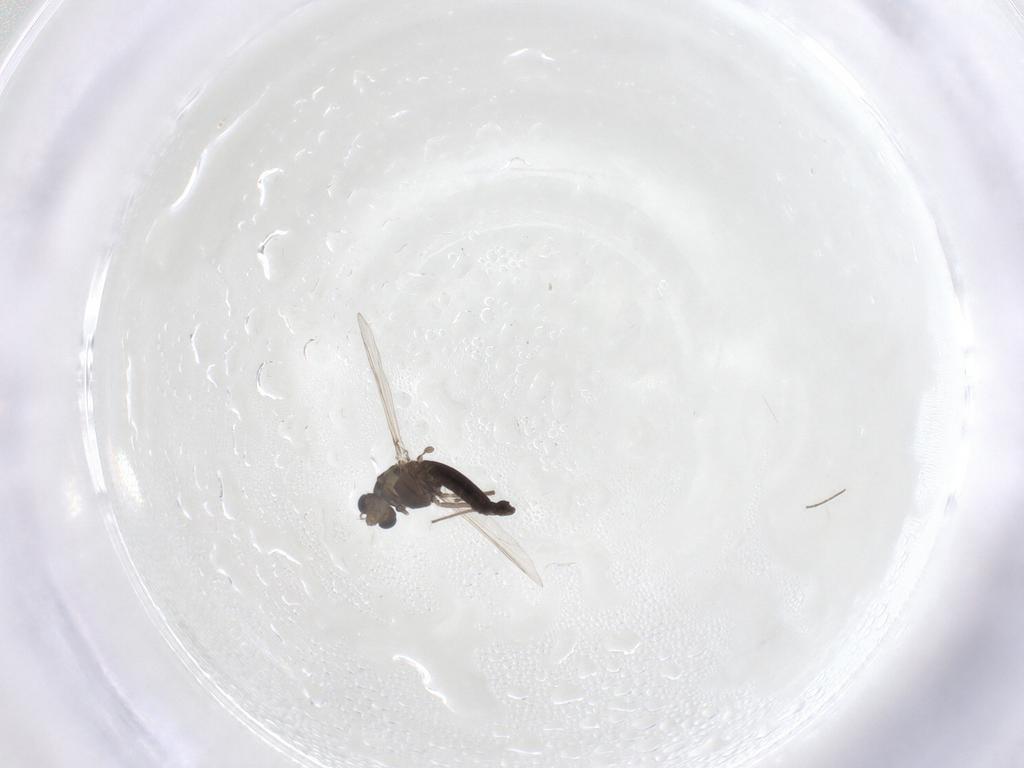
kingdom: Animalia
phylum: Arthropoda
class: Insecta
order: Diptera
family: Chironomidae
